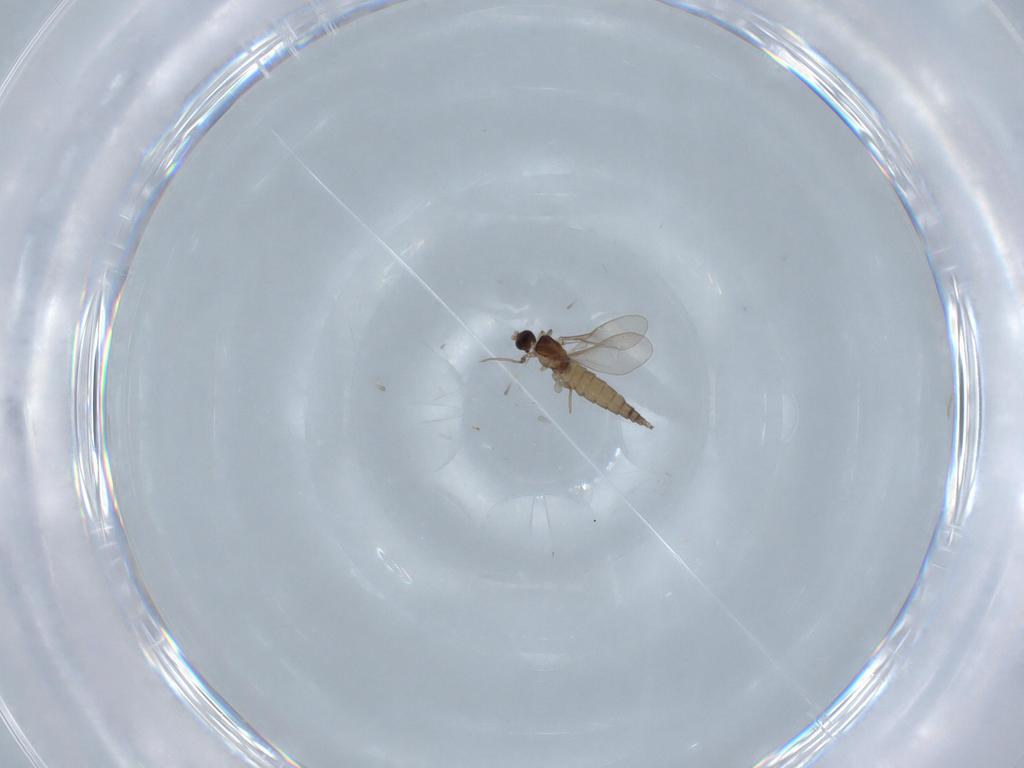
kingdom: Animalia
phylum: Arthropoda
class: Insecta
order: Diptera
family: Cecidomyiidae
